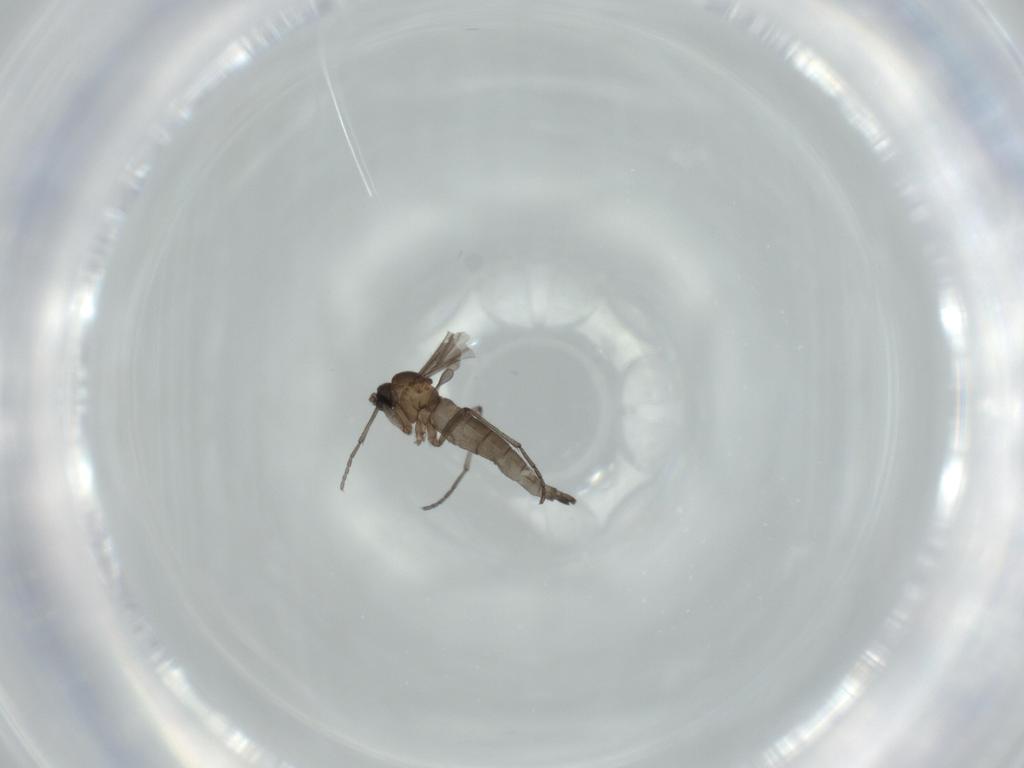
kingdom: Animalia
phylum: Arthropoda
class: Insecta
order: Diptera
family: Sciaridae
